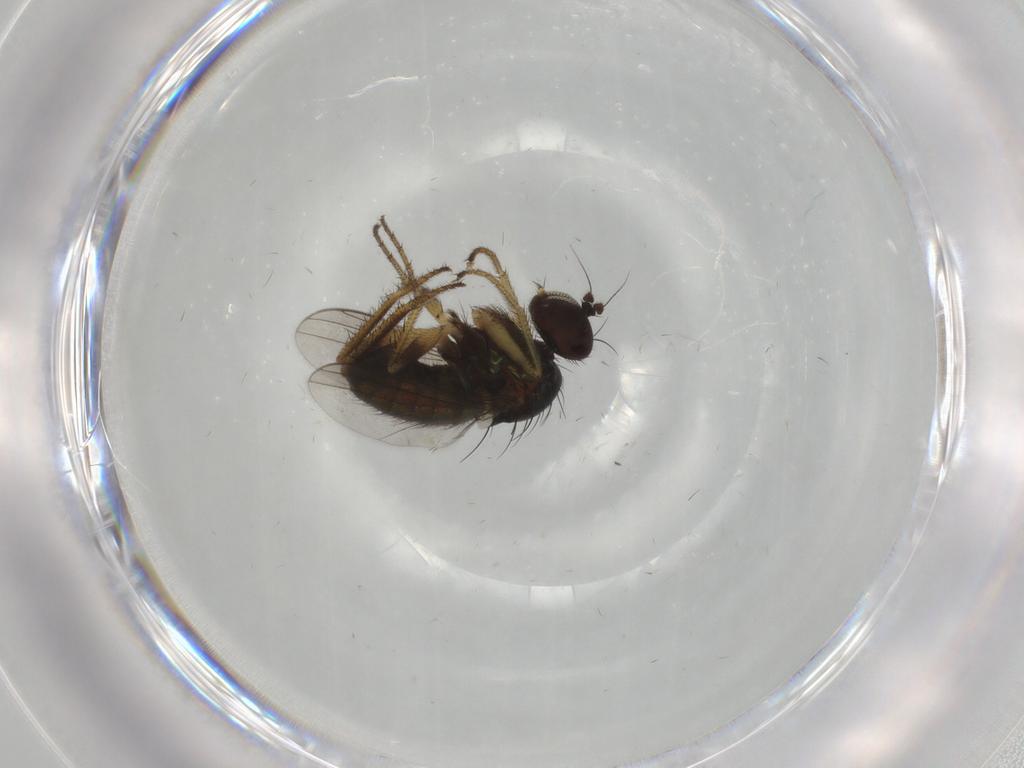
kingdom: Animalia
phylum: Arthropoda
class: Insecta
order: Diptera
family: Dolichopodidae
